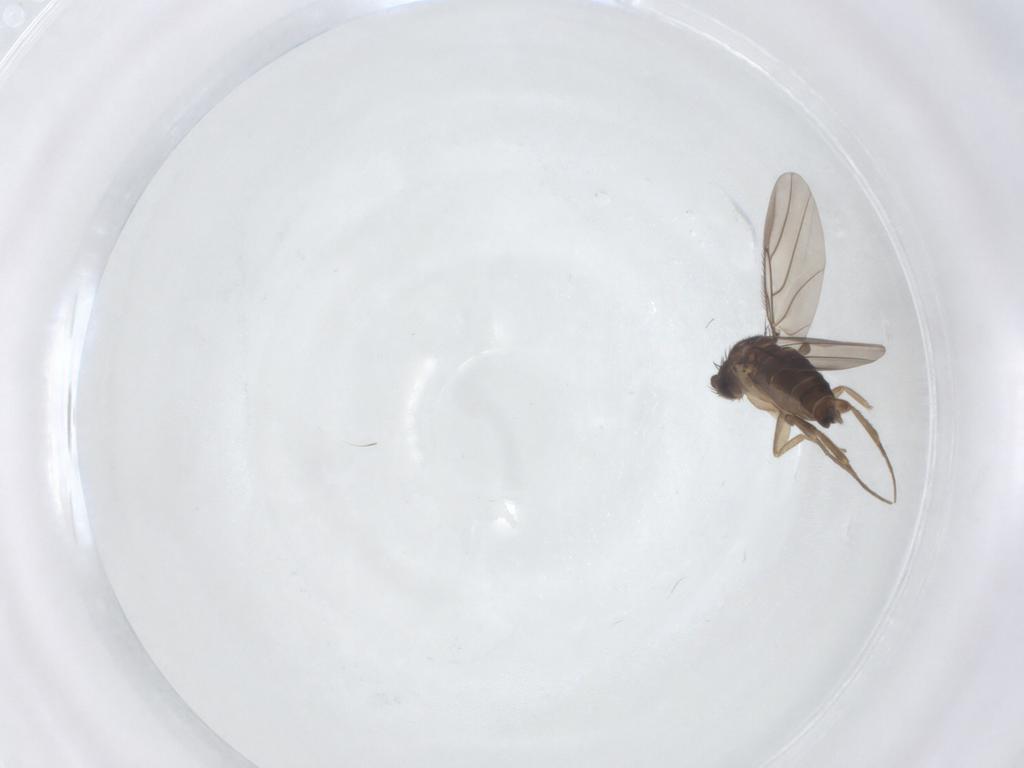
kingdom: Animalia
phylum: Arthropoda
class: Insecta
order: Diptera
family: Phoridae
